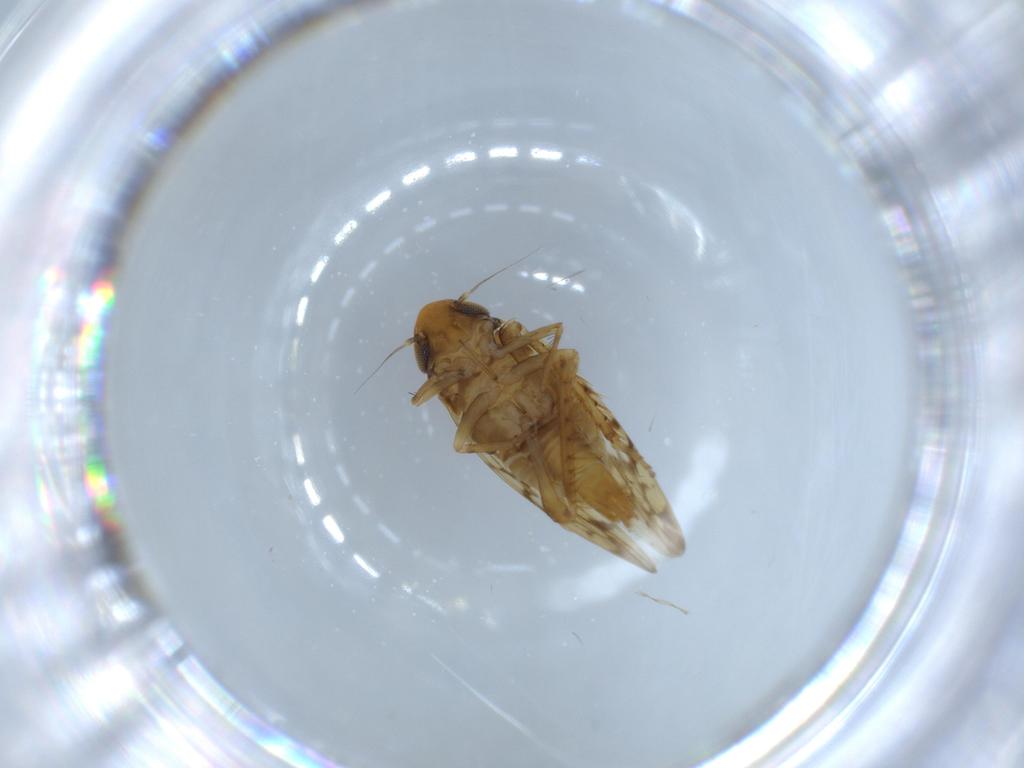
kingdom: Animalia
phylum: Arthropoda
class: Insecta
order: Hemiptera
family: Cicadellidae
